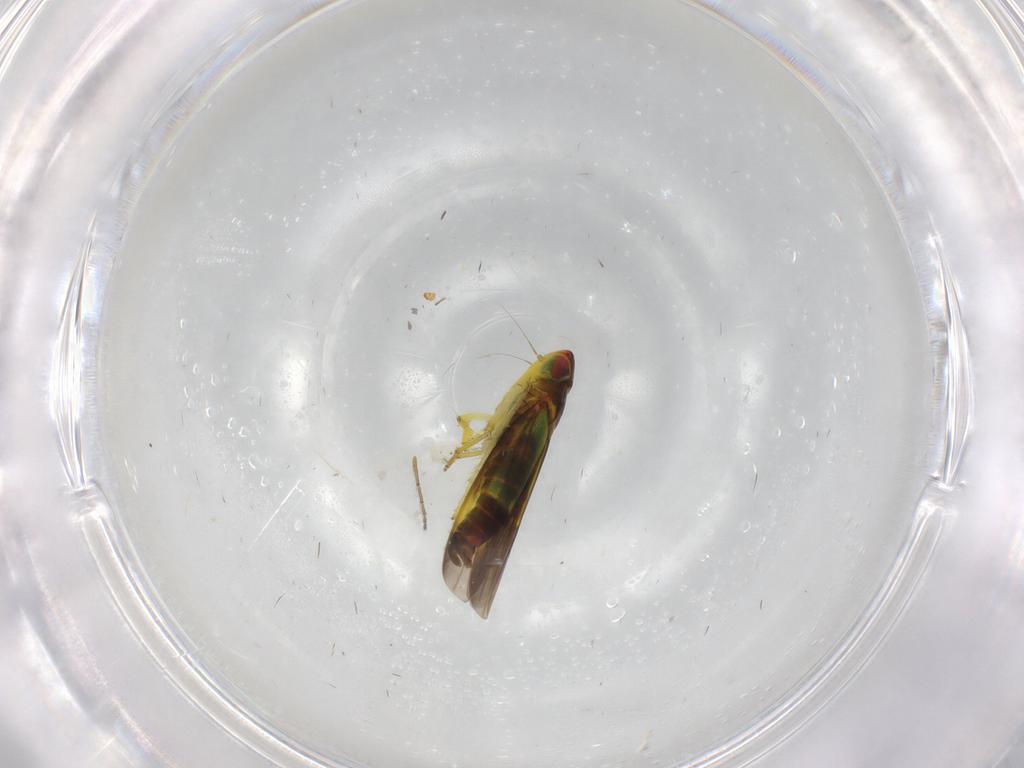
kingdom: Animalia
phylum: Arthropoda
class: Insecta
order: Hemiptera
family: Cicadellidae
